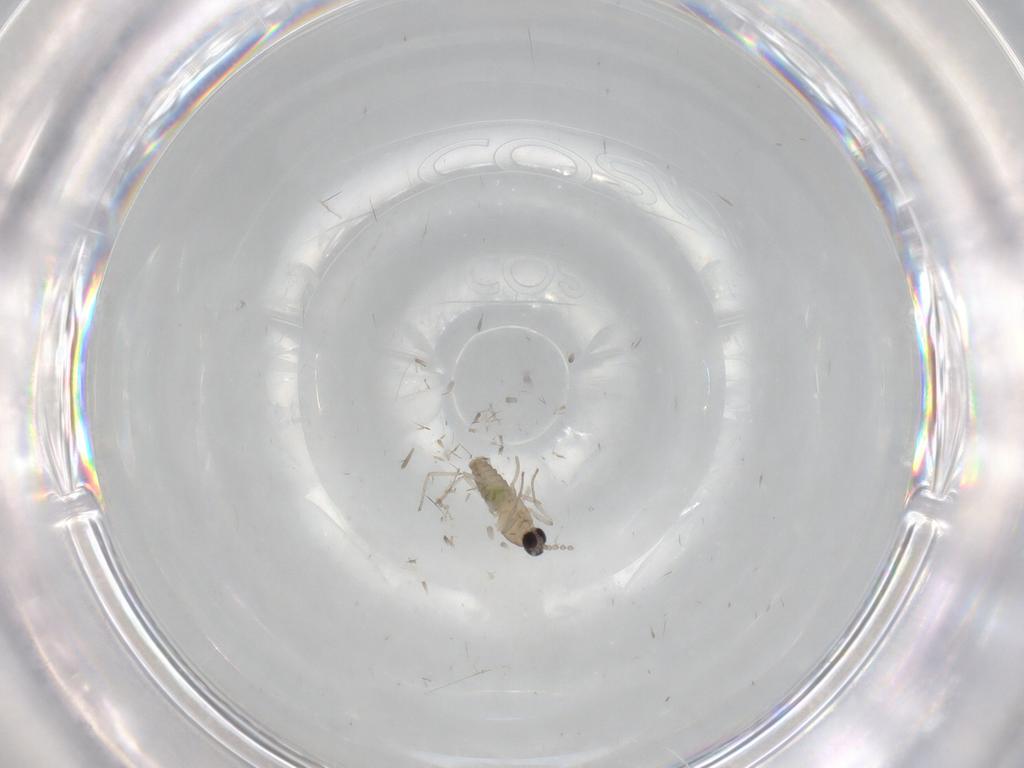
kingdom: Animalia
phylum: Arthropoda
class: Insecta
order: Diptera
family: Cecidomyiidae
